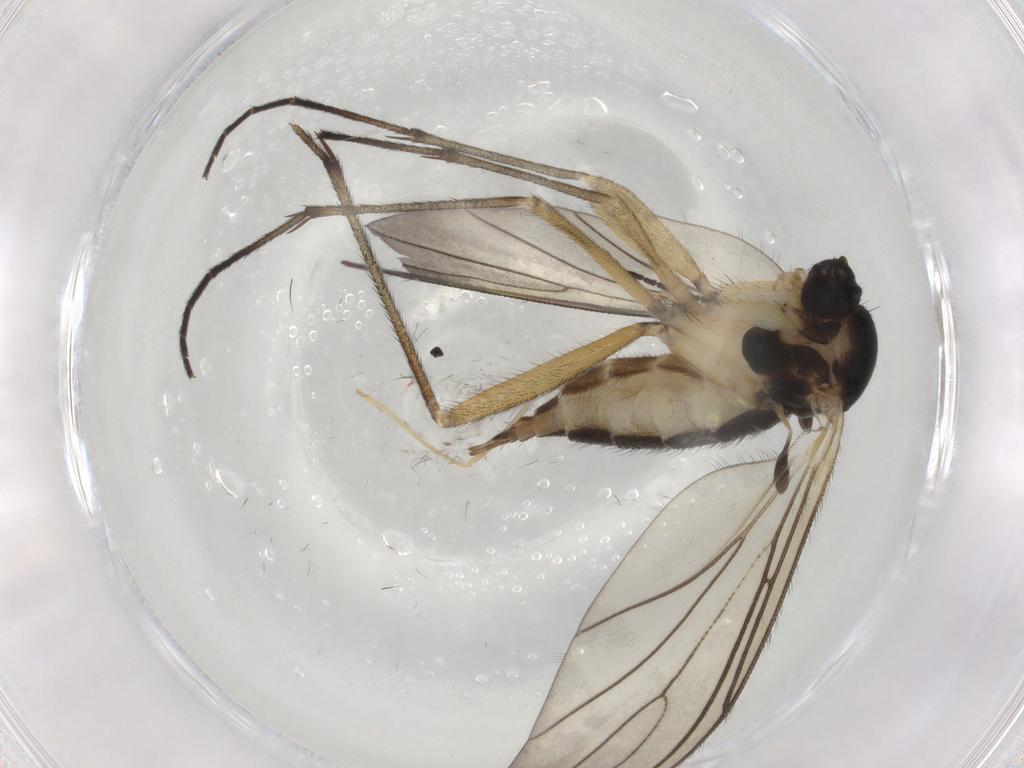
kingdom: Animalia
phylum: Arthropoda
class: Insecta
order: Diptera
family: Sciaridae
